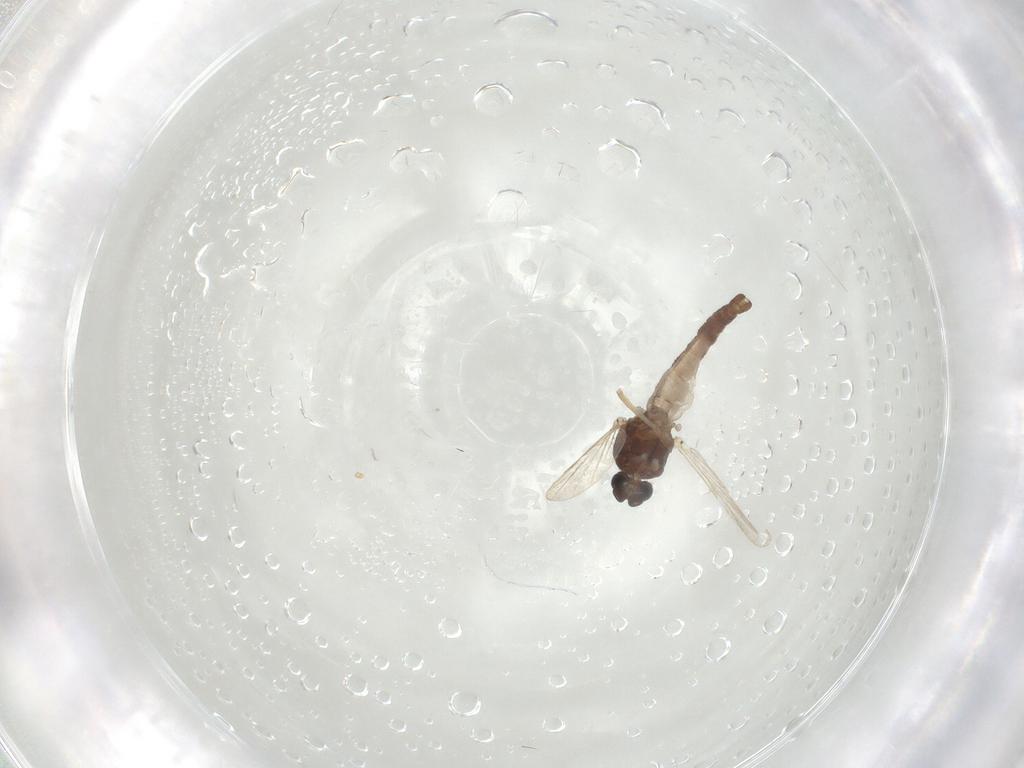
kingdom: Animalia
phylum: Arthropoda
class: Insecta
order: Diptera
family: Ceratopogonidae
